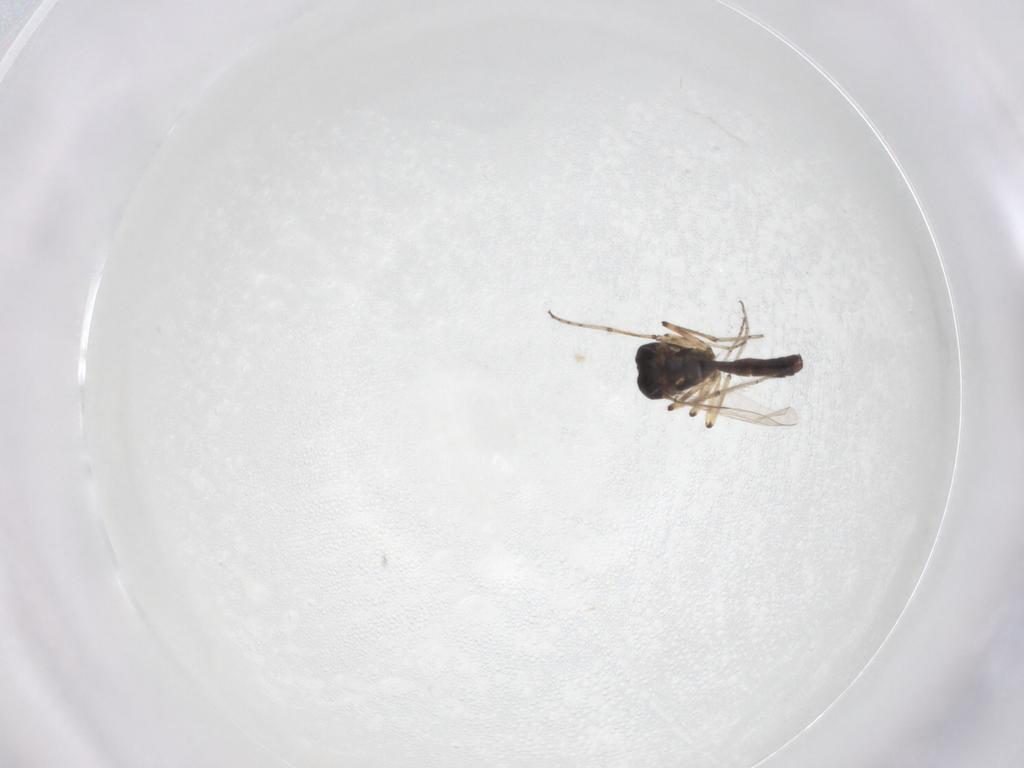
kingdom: Animalia
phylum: Arthropoda
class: Insecta
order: Diptera
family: Ceratopogonidae
